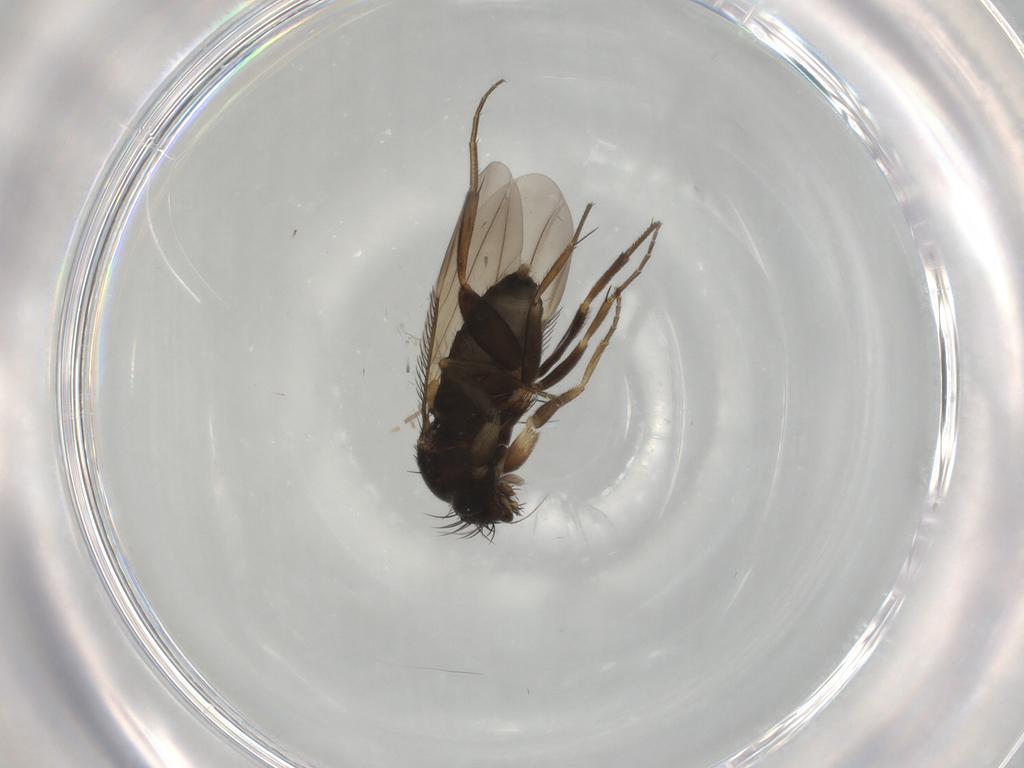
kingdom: Animalia
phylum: Arthropoda
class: Insecta
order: Diptera
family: Phoridae
